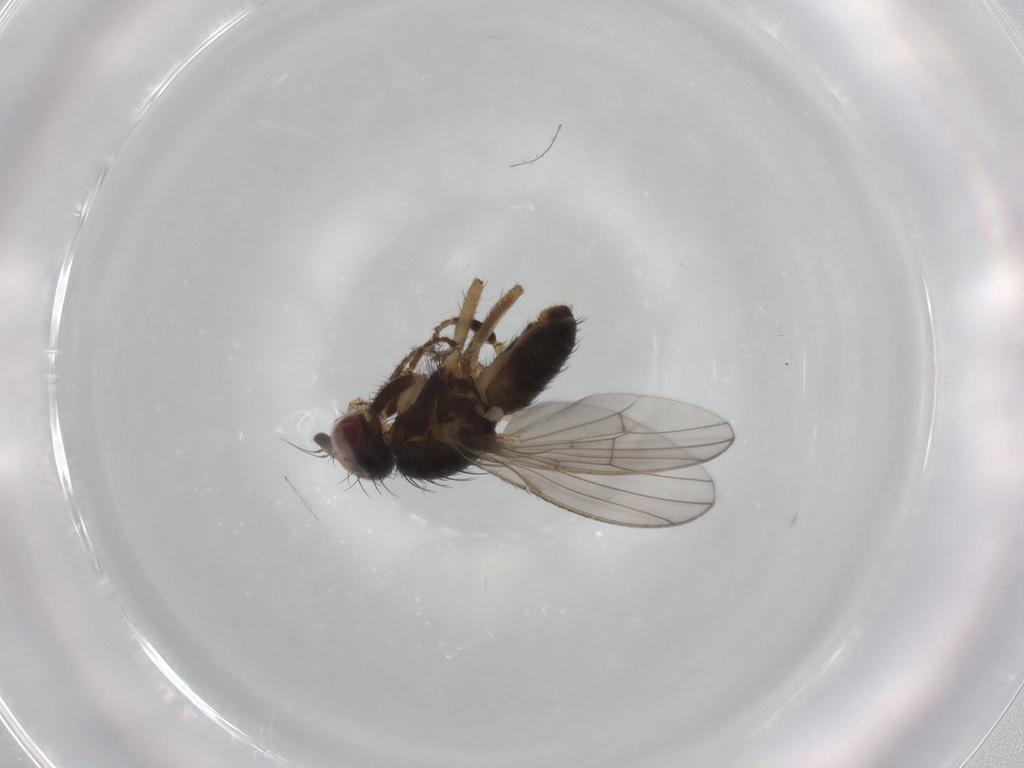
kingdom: Animalia
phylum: Arthropoda
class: Insecta
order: Diptera
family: Heleomyzidae
